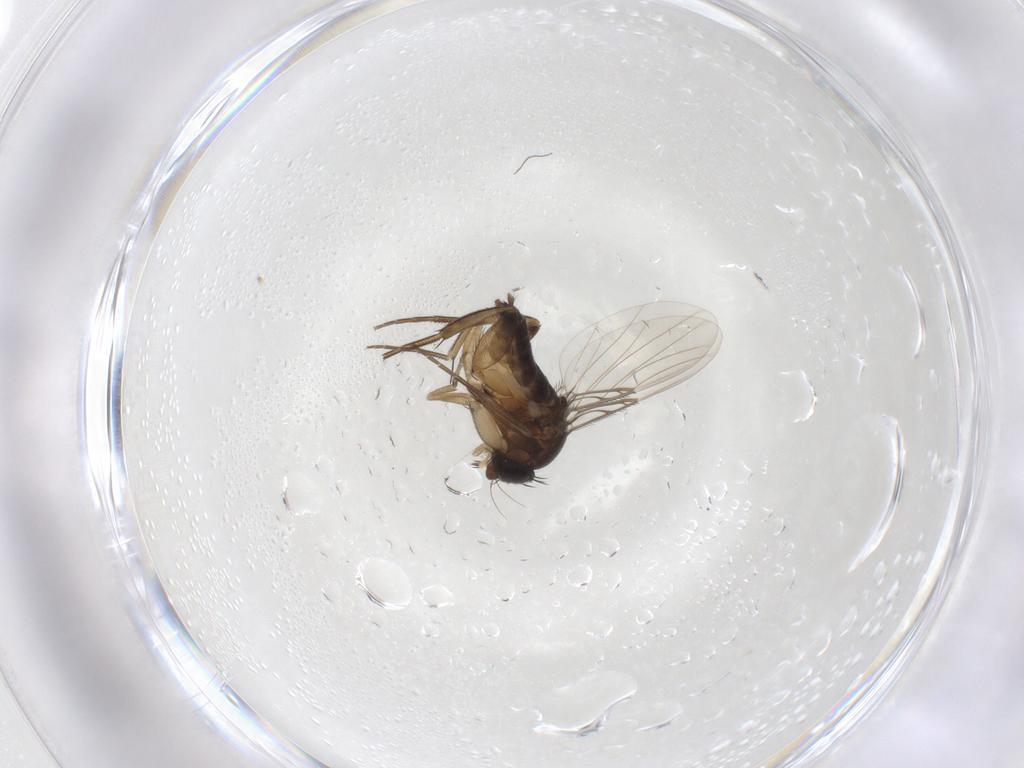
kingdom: Animalia
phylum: Arthropoda
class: Insecta
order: Diptera
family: Phoridae
